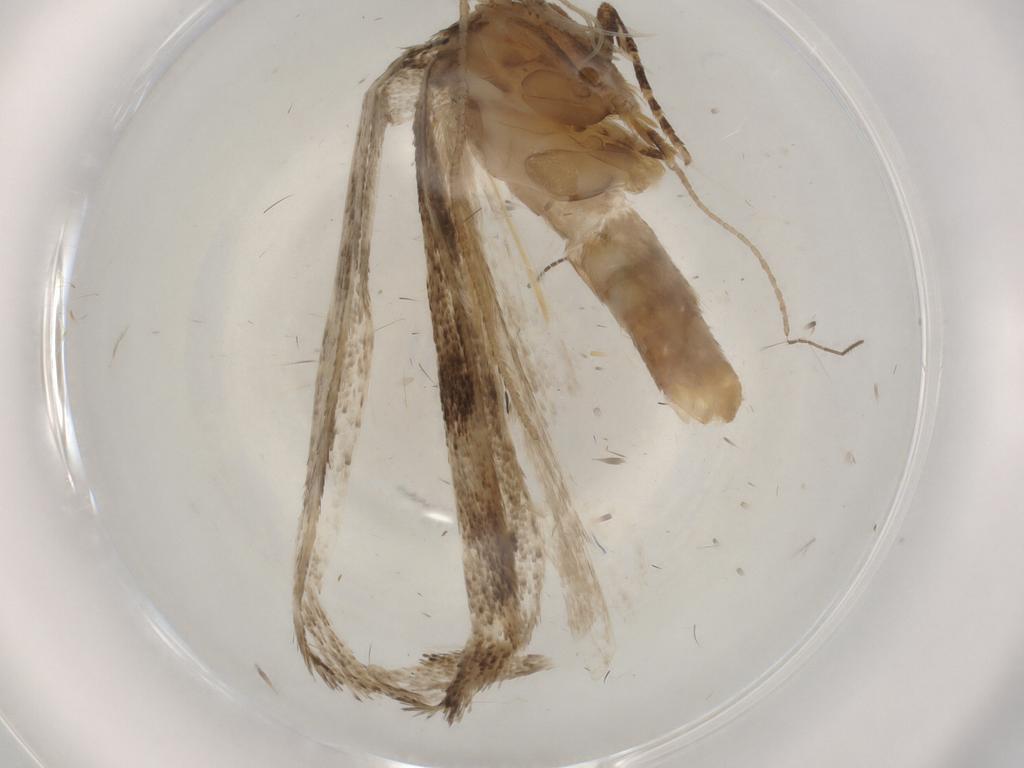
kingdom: Animalia
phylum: Arthropoda
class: Insecta
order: Lepidoptera
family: Gelechiidae
